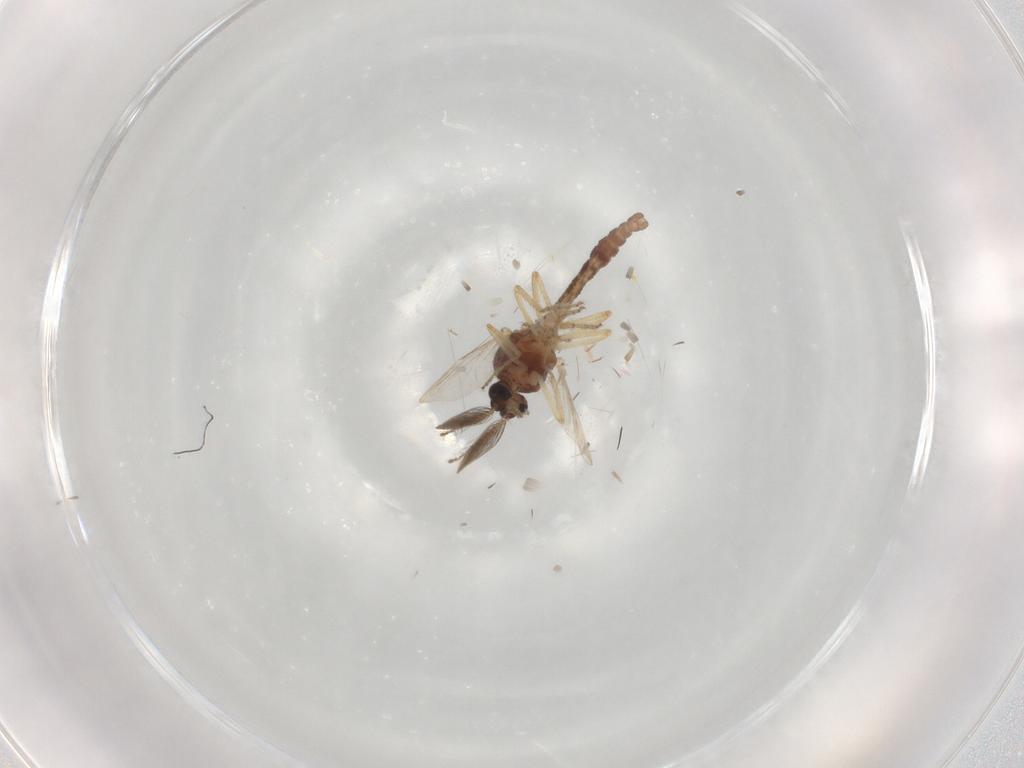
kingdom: Animalia
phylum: Arthropoda
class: Insecta
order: Diptera
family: Ceratopogonidae
